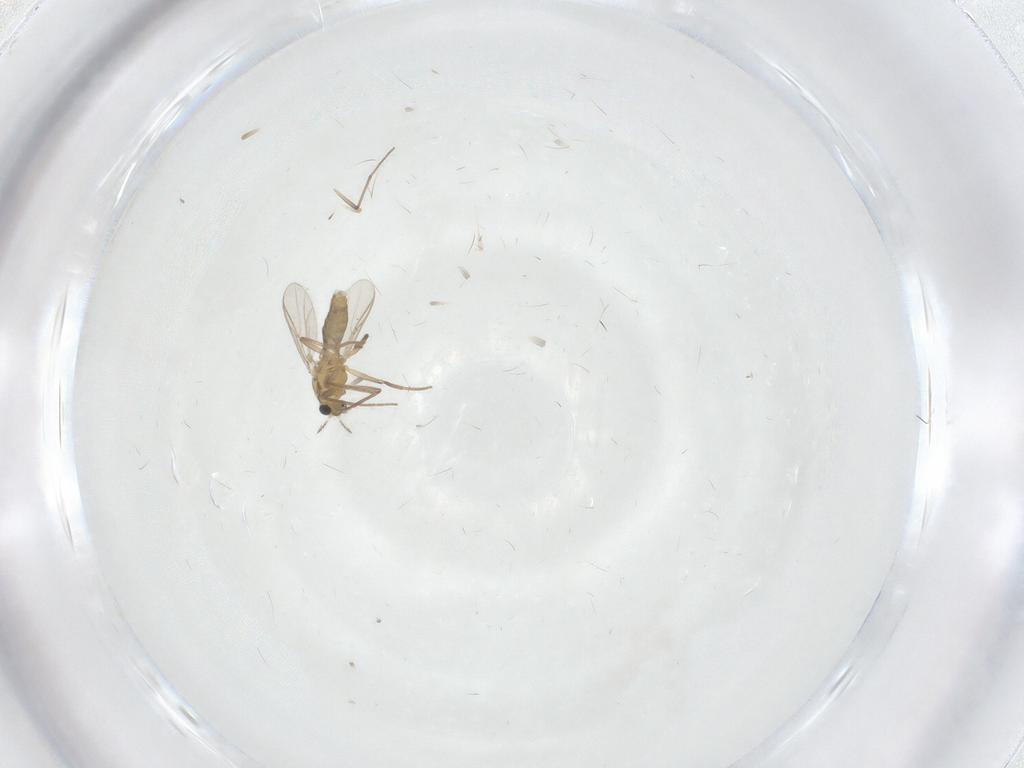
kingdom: Animalia
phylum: Arthropoda
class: Insecta
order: Diptera
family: Chironomidae
